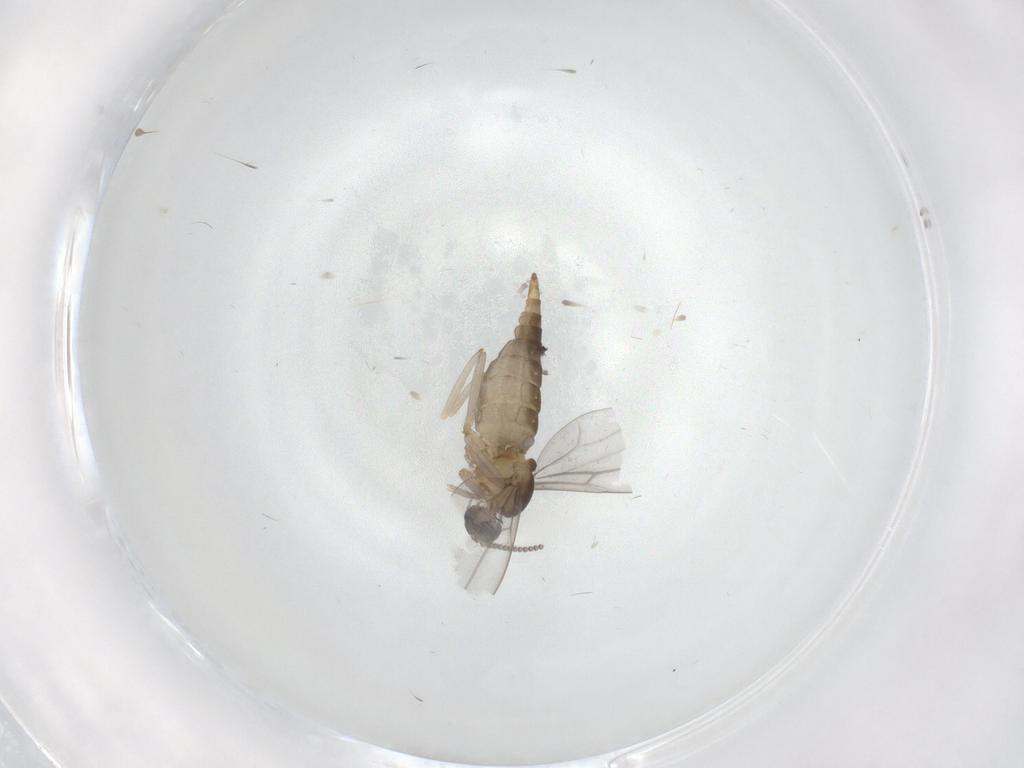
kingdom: Animalia
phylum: Arthropoda
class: Insecta
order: Diptera
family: Cecidomyiidae
